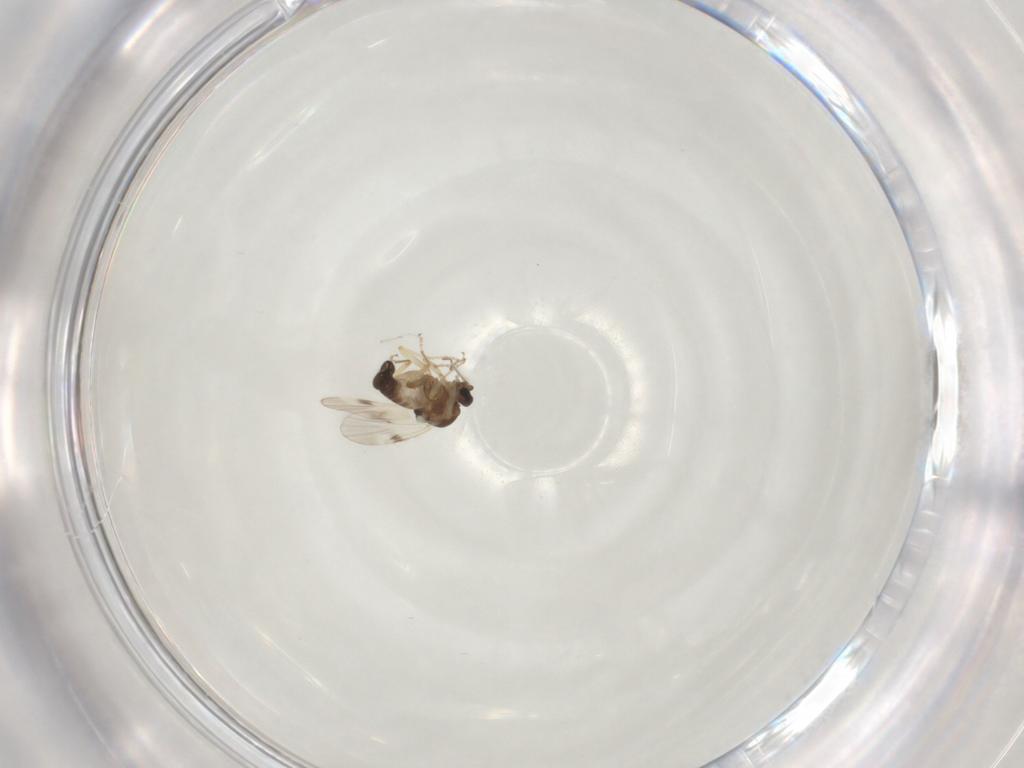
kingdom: Animalia
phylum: Arthropoda
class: Insecta
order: Diptera
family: Ceratopogonidae
